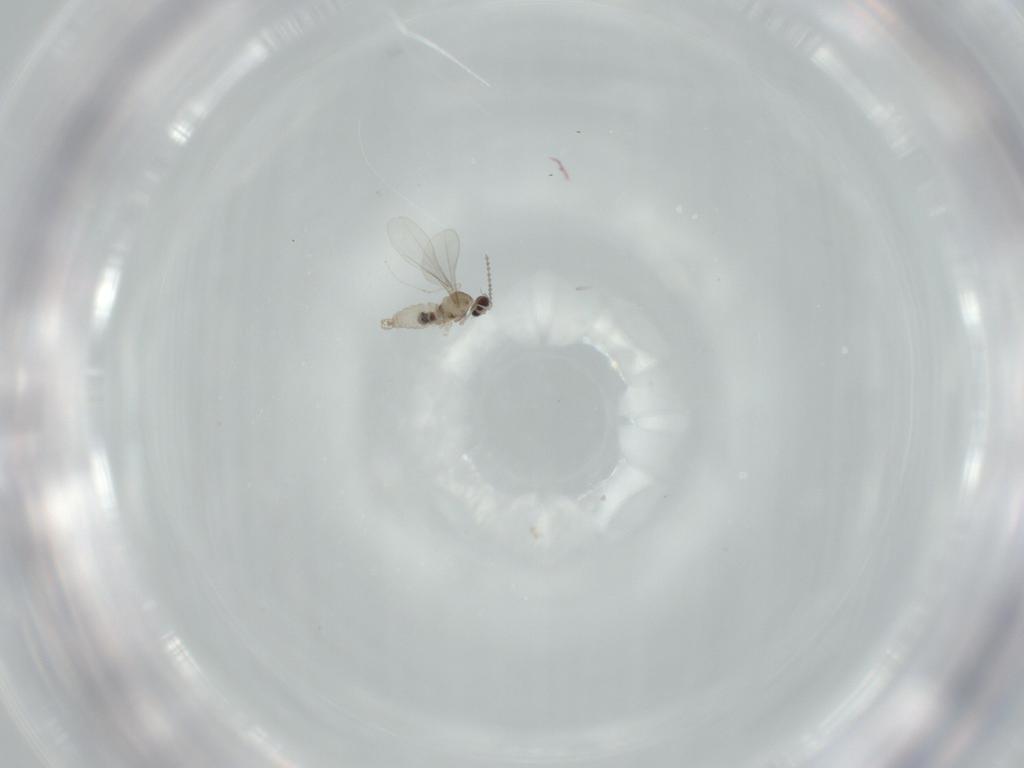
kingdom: Animalia
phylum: Arthropoda
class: Insecta
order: Diptera
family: Cecidomyiidae
